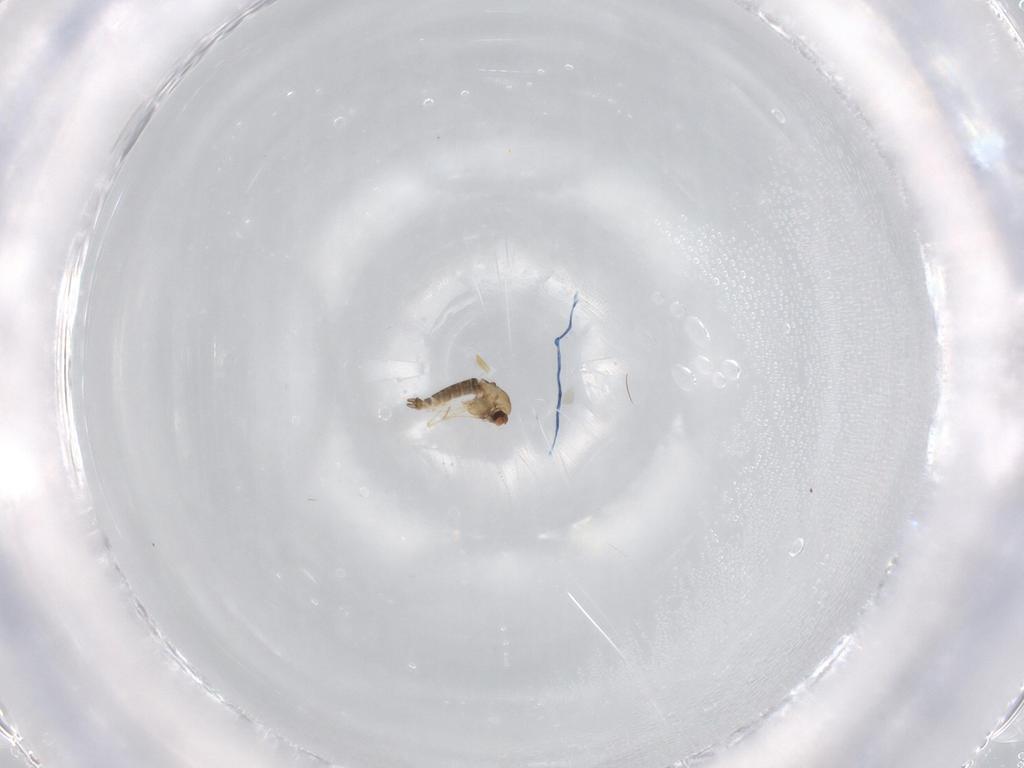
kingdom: Animalia
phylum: Arthropoda
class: Insecta
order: Diptera
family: Chironomidae
